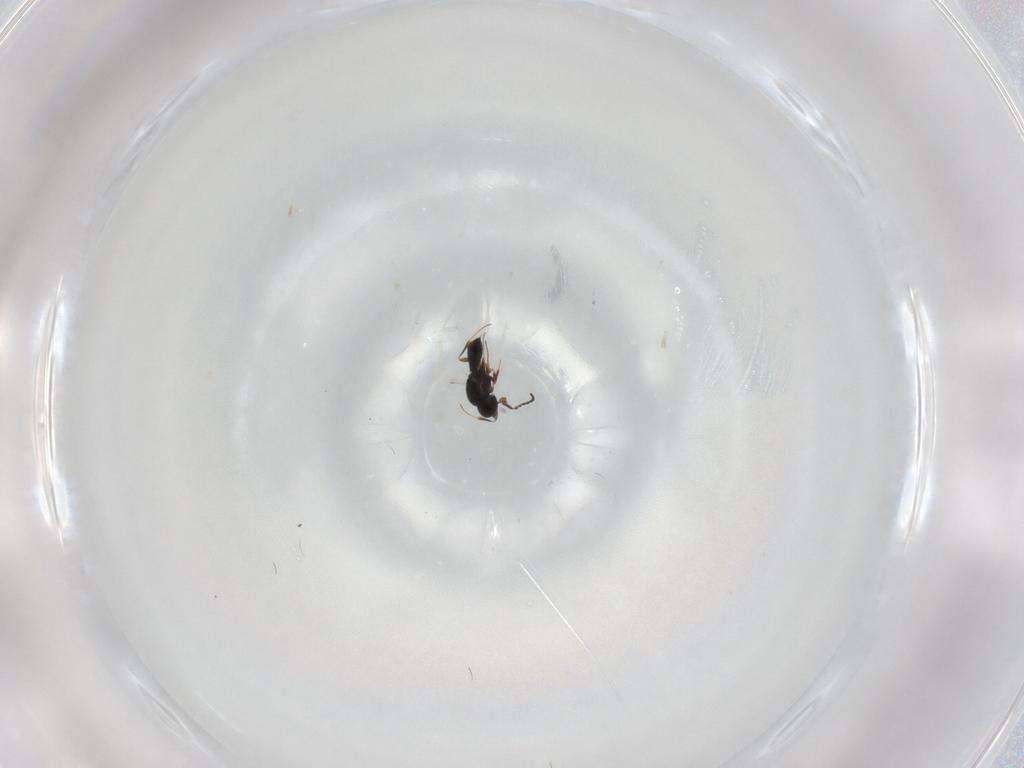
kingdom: Animalia
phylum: Arthropoda
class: Insecta
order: Hymenoptera
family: Scelionidae
